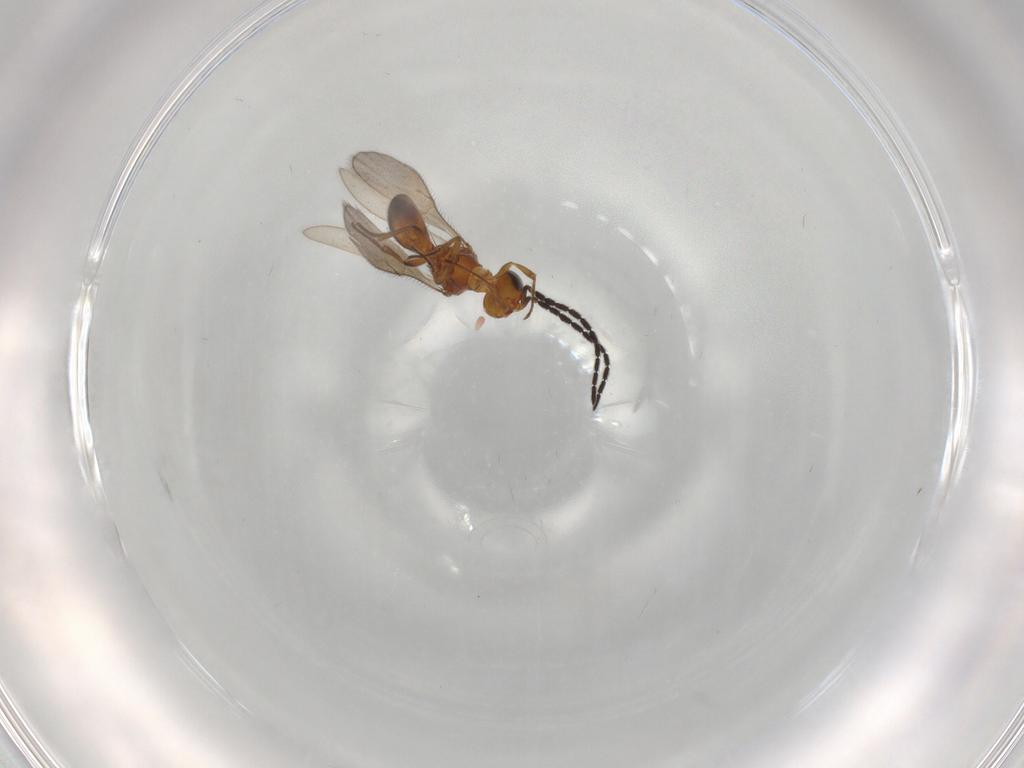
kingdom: Animalia
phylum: Arthropoda
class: Insecta
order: Hymenoptera
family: Scelionidae
